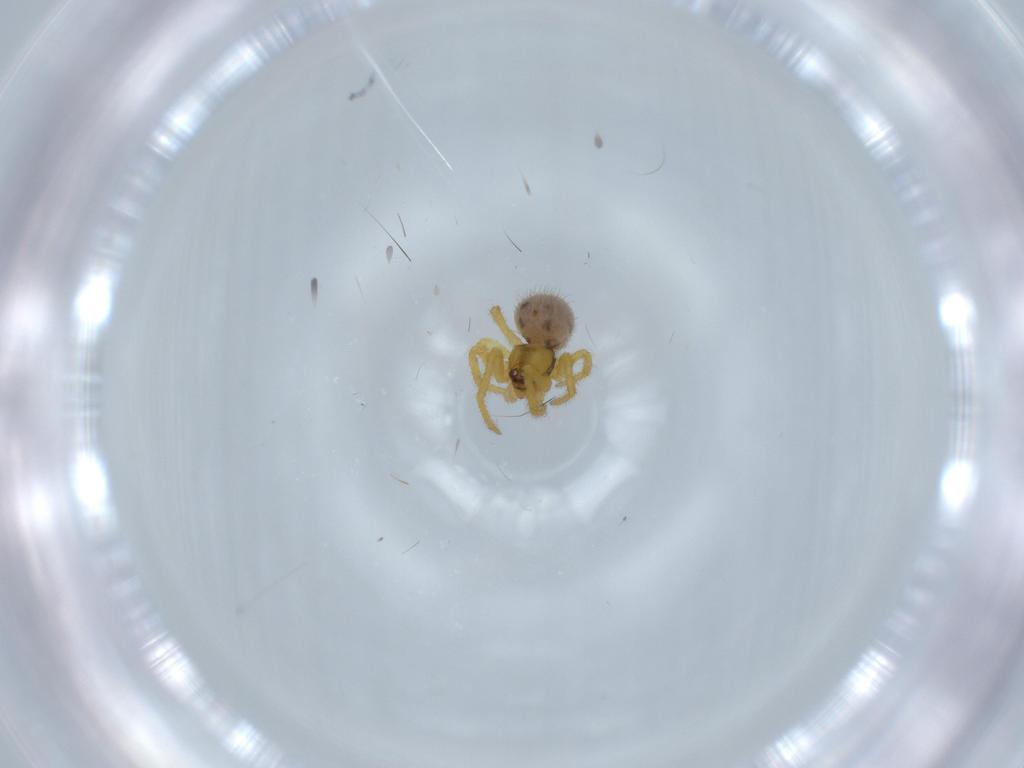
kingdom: Animalia
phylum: Arthropoda
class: Arachnida
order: Araneae
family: Theridiidae
